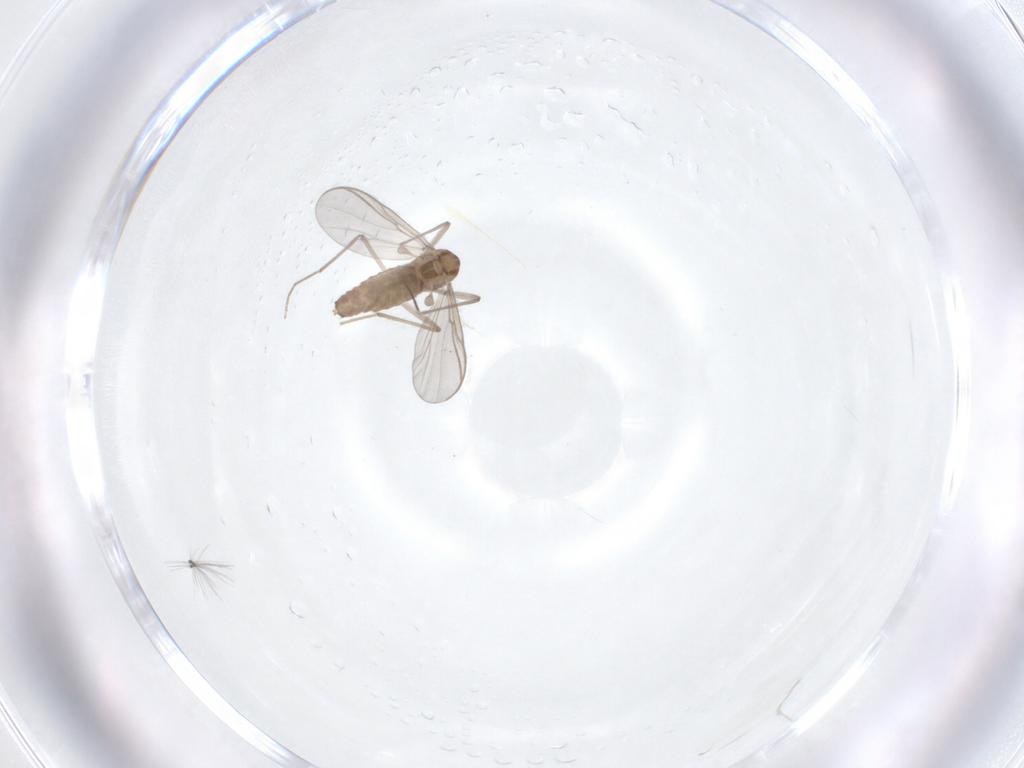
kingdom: Animalia
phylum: Arthropoda
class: Insecta
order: Diptera
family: Chironomidae
